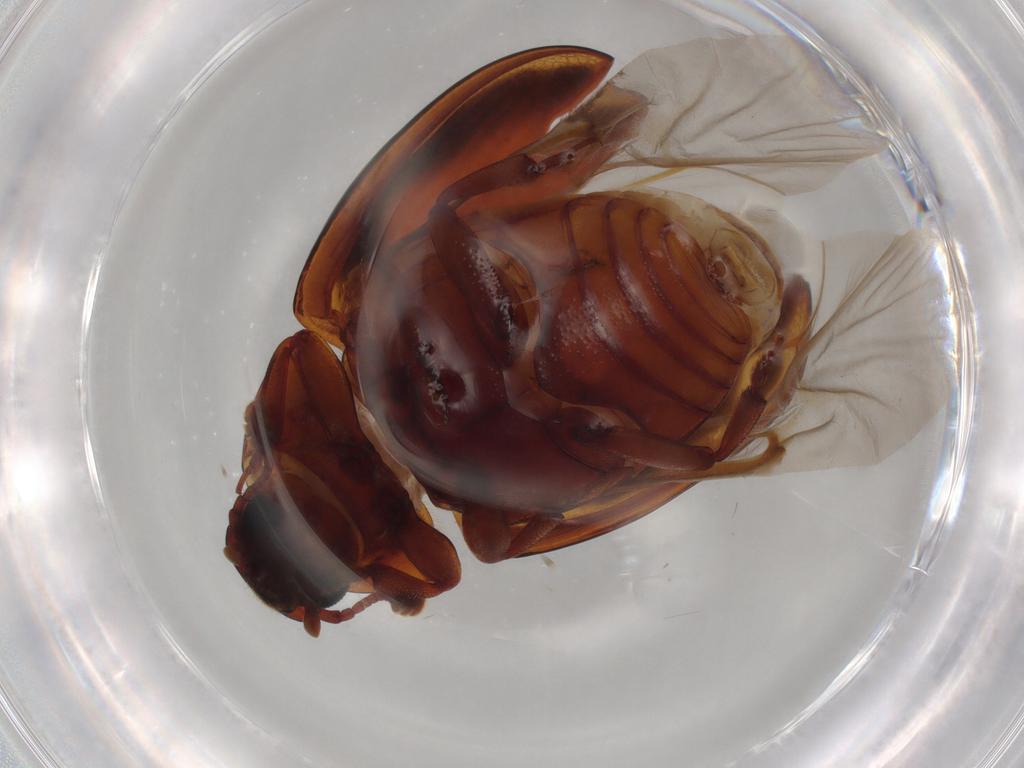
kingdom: Animalia
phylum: Arthropoda
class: Insecta
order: Coleoptera
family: Zopheridae
